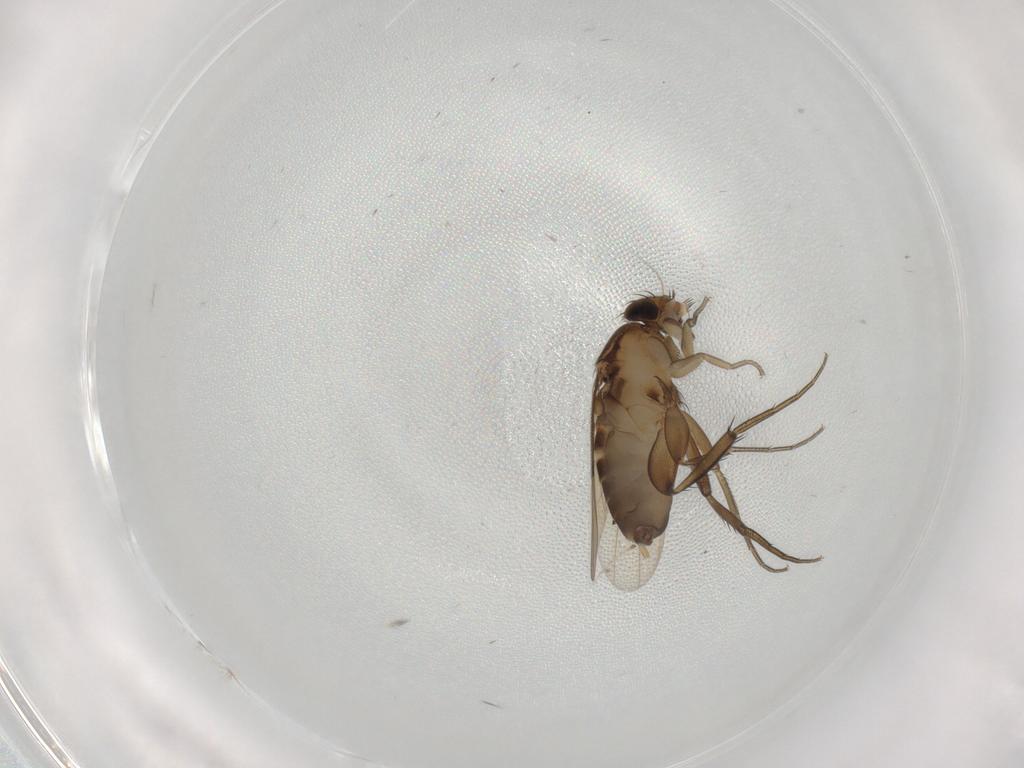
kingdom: Animalia
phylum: Arthropoda
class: Insecta
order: Diptera
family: Phoridae
